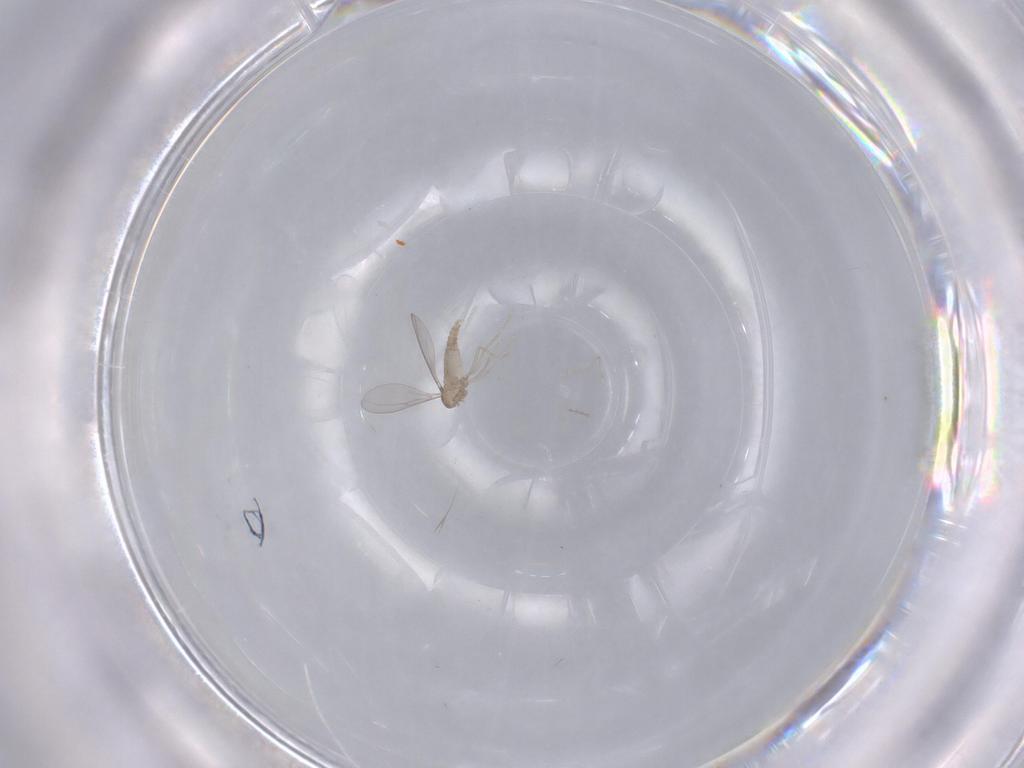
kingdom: Animalia
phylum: Arthropoda
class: Insecta
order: Diptera
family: Cecidomyiidae
